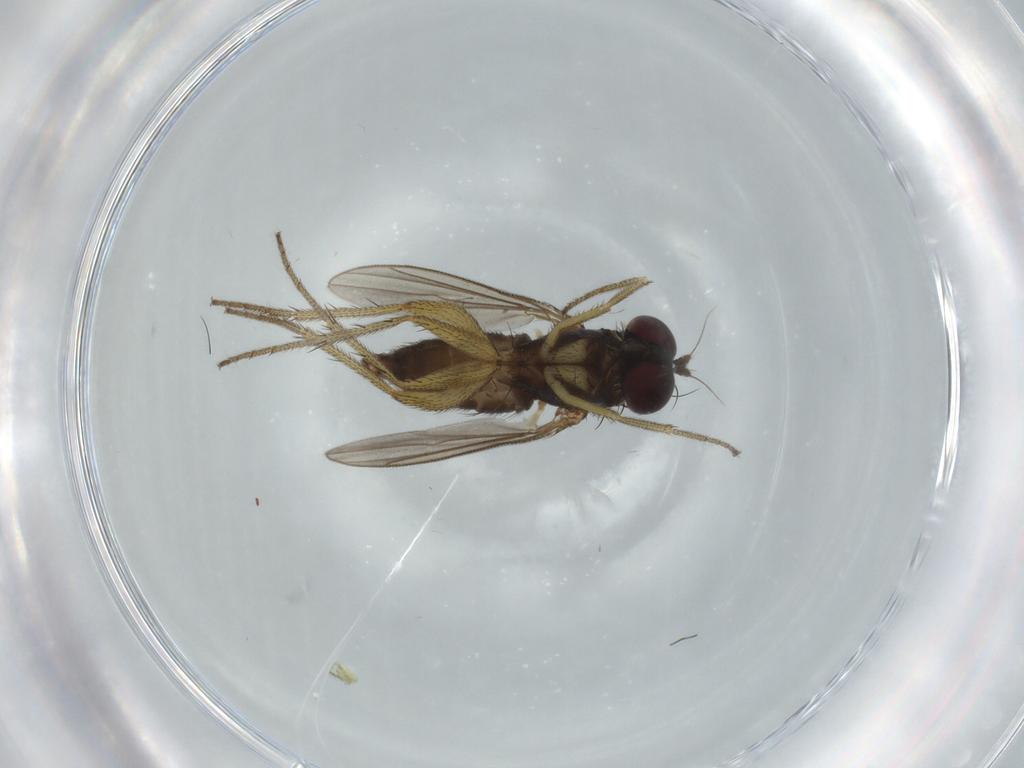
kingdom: Animalia
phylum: Arthropoda
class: Insecta
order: Diptera
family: Dolichopodidae
